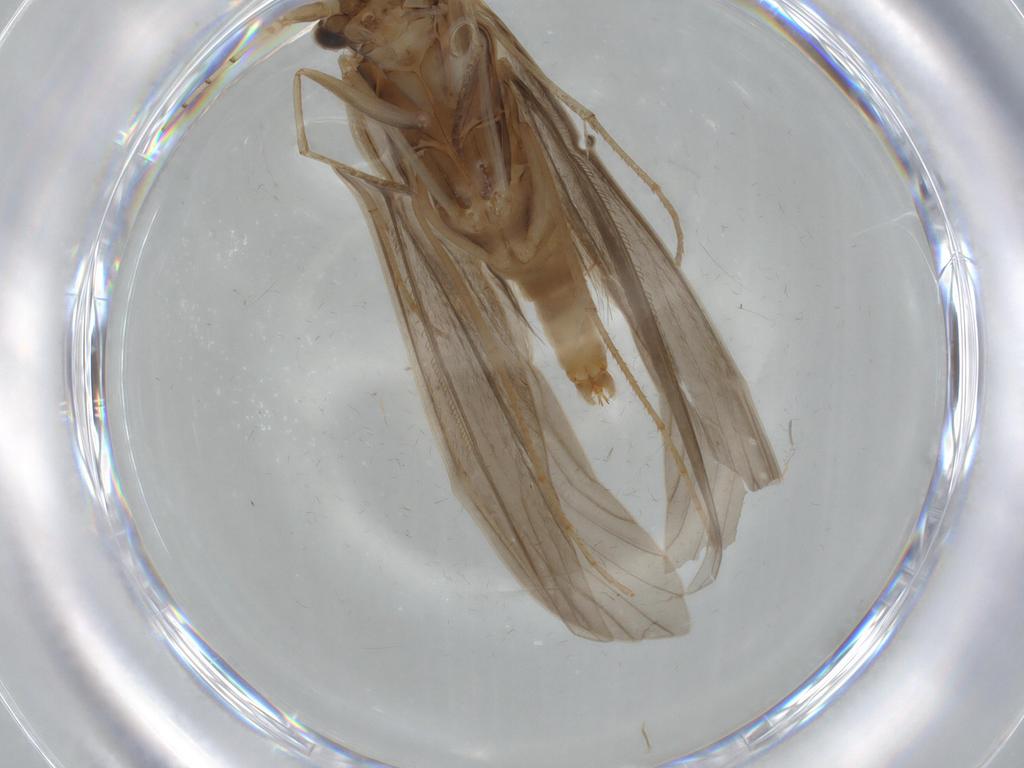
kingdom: Animalia
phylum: Arthropoda
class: Insecta
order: Trichoptera
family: Leptoceridae
